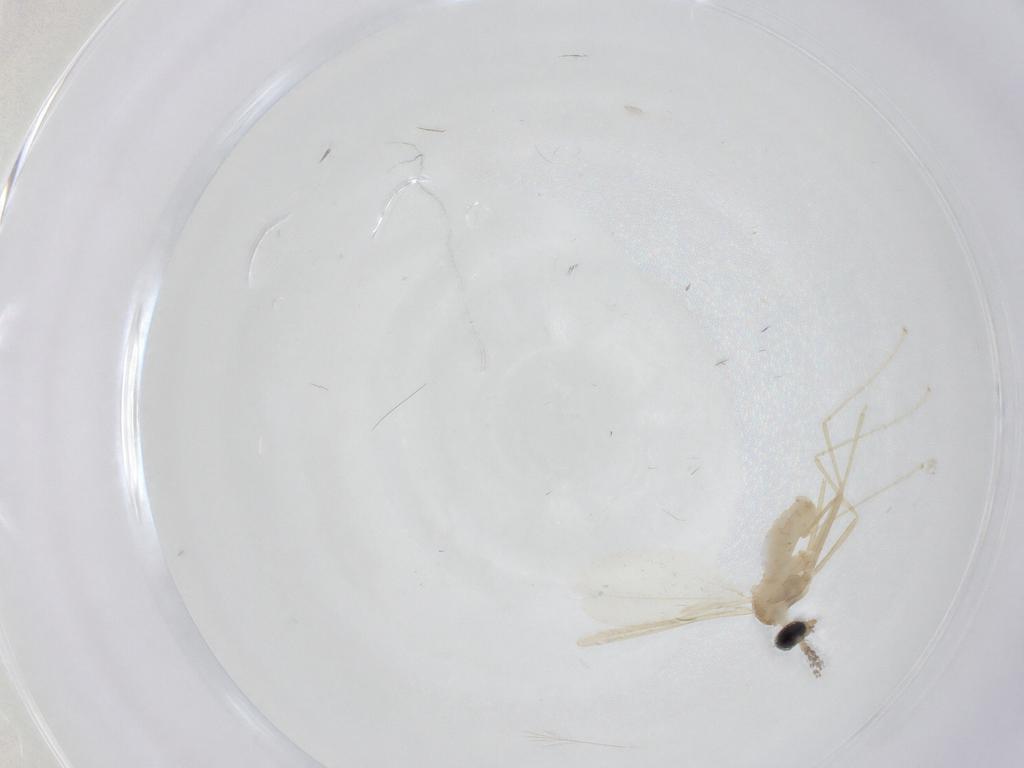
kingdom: Animalia
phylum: Arthropoda
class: Insecta
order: Diptera
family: Cecidomyiidae
